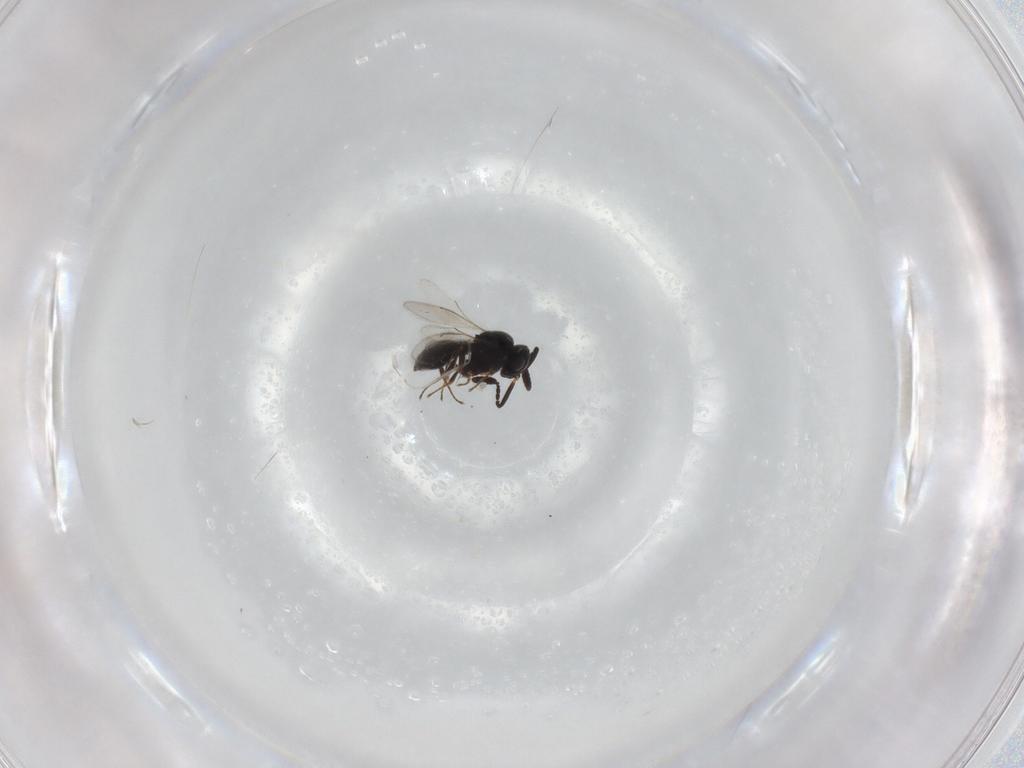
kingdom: Animalia
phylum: Arthropoda
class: Insecta
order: Hymenoptera
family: Scelionidae
